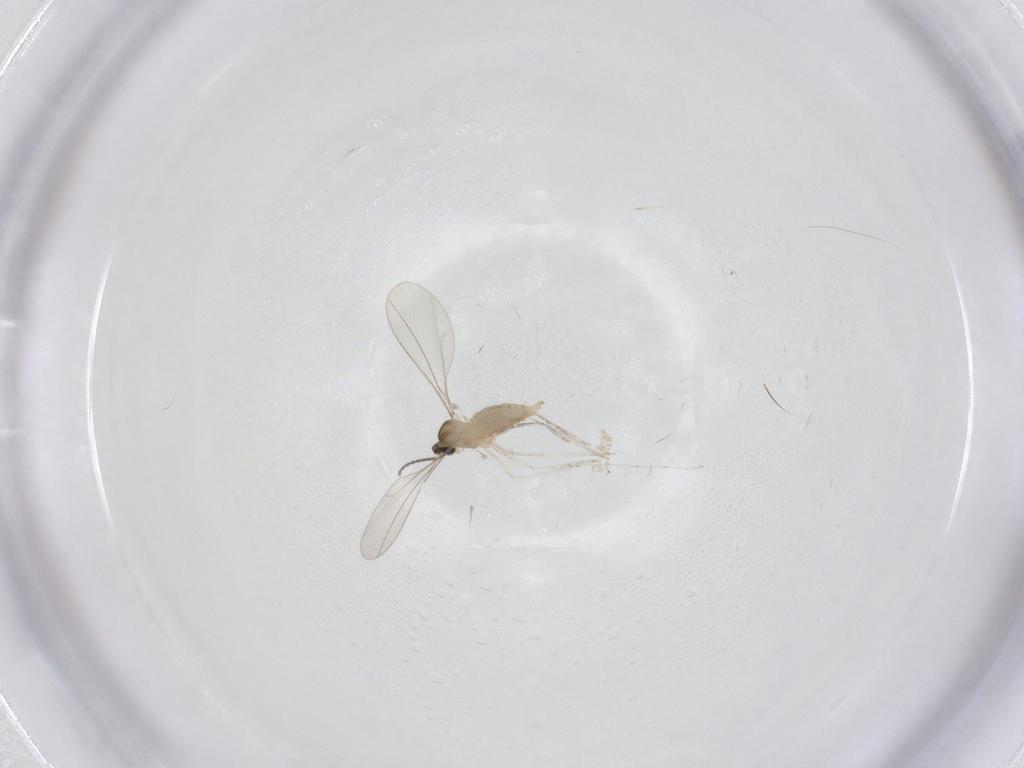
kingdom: Animalia
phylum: Arthropoda
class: Insecta
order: Diptera
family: Cecidomyiidae
